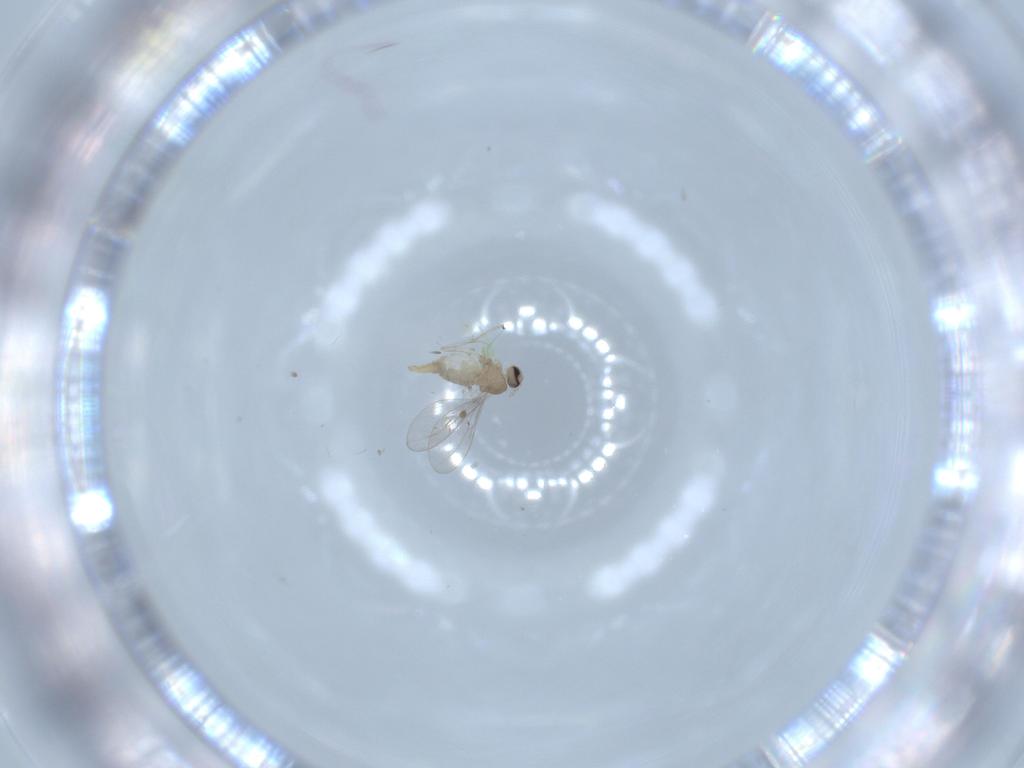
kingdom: Animalia
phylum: Arthropoda
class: Insecta
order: Diptera
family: Cecidomyiidae
